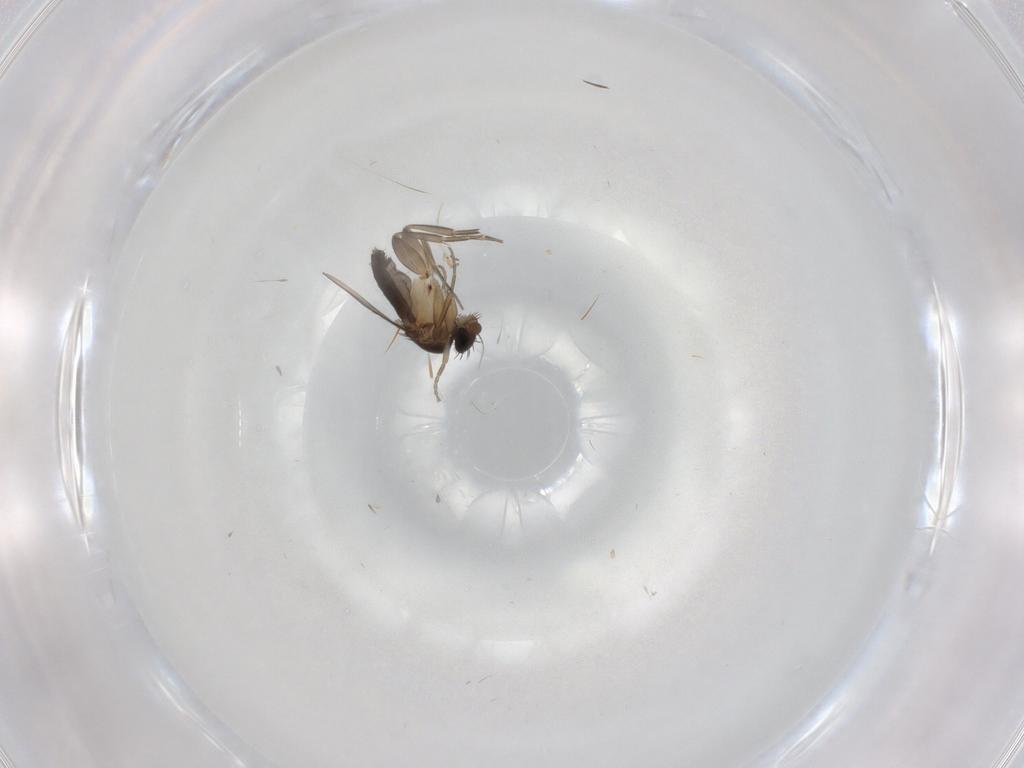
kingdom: Animalia
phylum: Arthropoda
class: Insecta
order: Diptera
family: Phoridae
